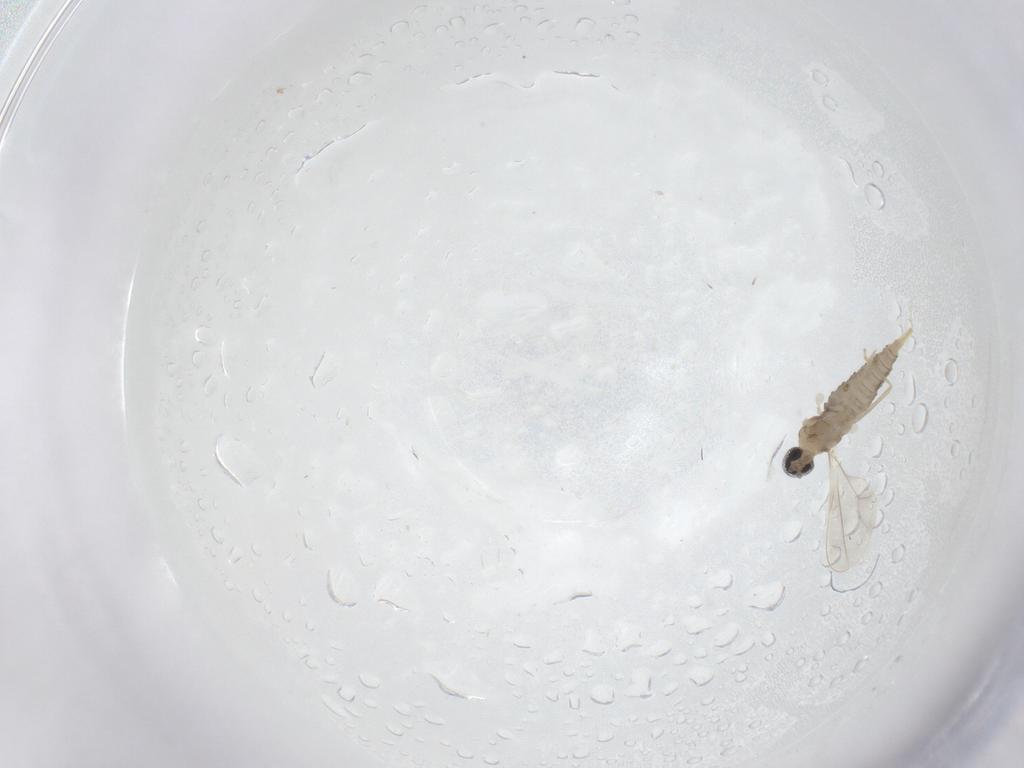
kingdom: Animalia
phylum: Arthropoda
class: Insecta
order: Diptera
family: Cecidomyiidae
